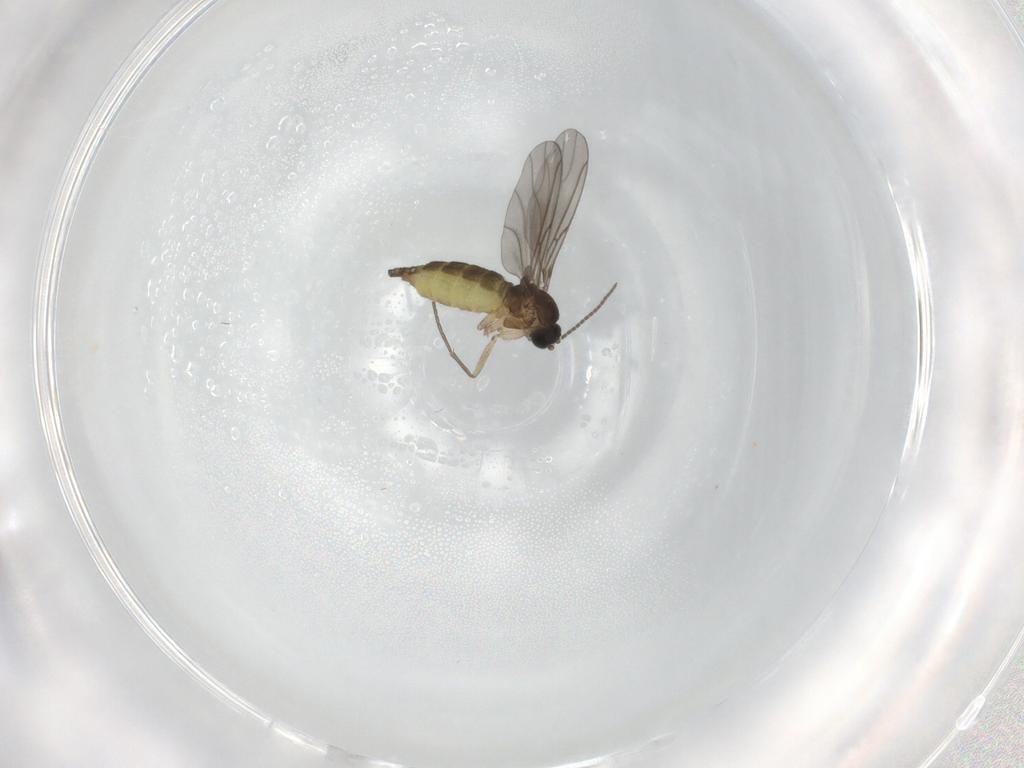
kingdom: Animalia
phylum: Arthropoda
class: Insecta
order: Diptera
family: Sciaridae
